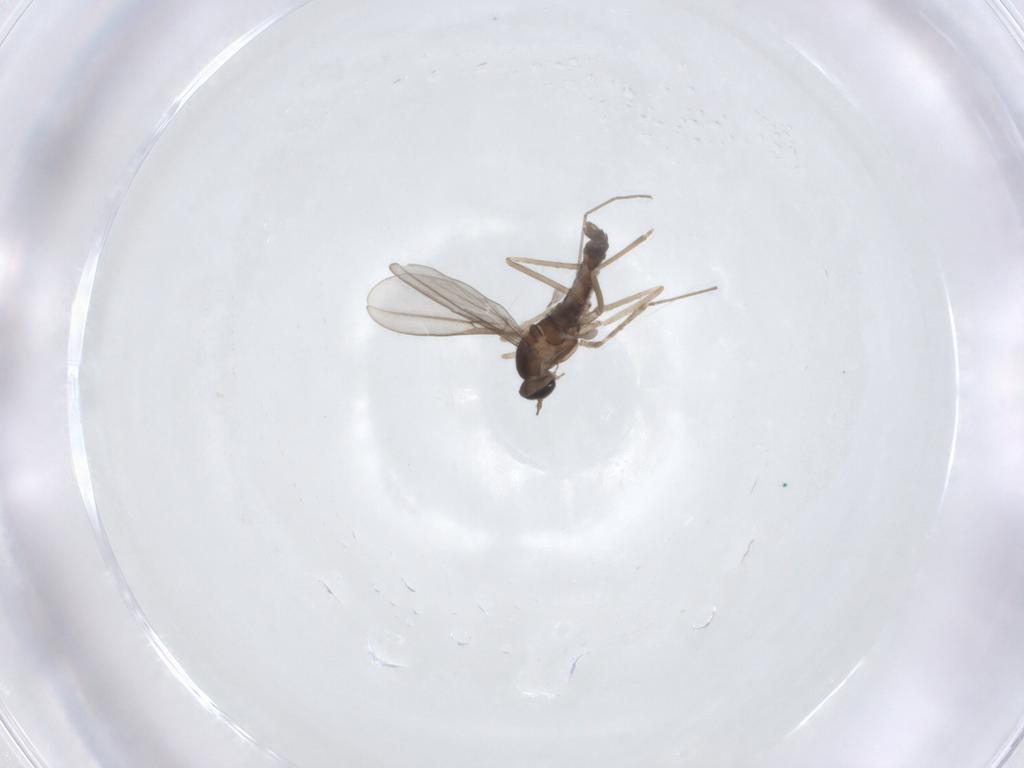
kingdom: Animalia
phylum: Arthropoda
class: Insecta
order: Diptera
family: Cecidomyiidae
